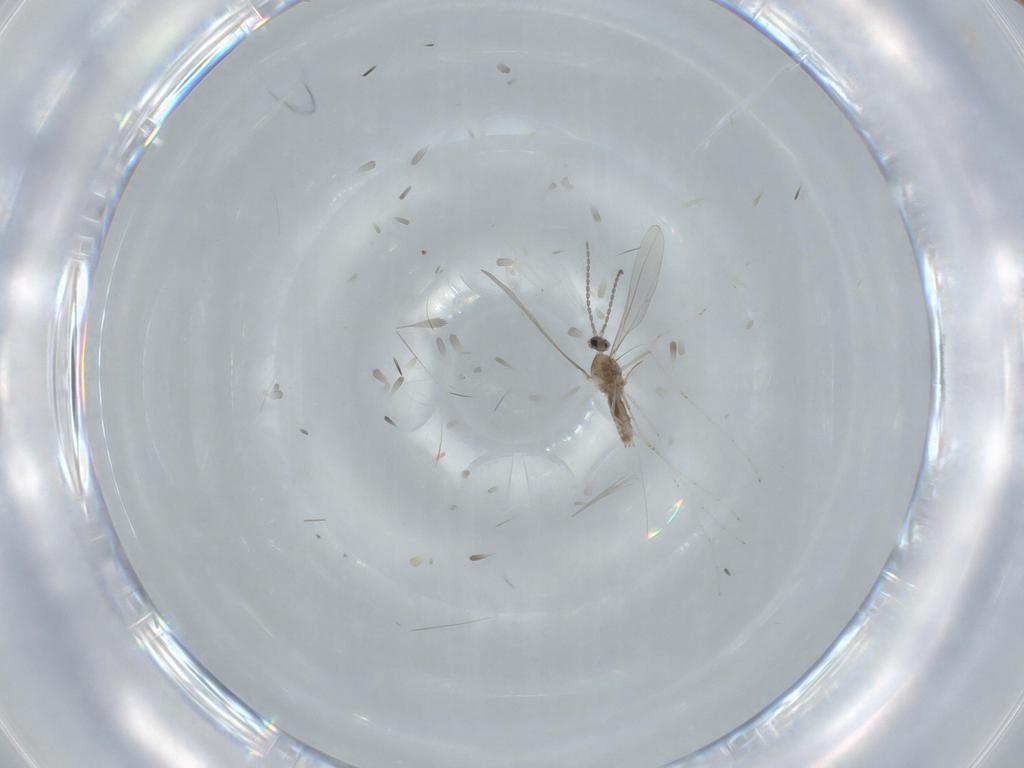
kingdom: Animalia
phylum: Arthropoda
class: Insecta
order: Diptera
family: Cecidomyiidae
